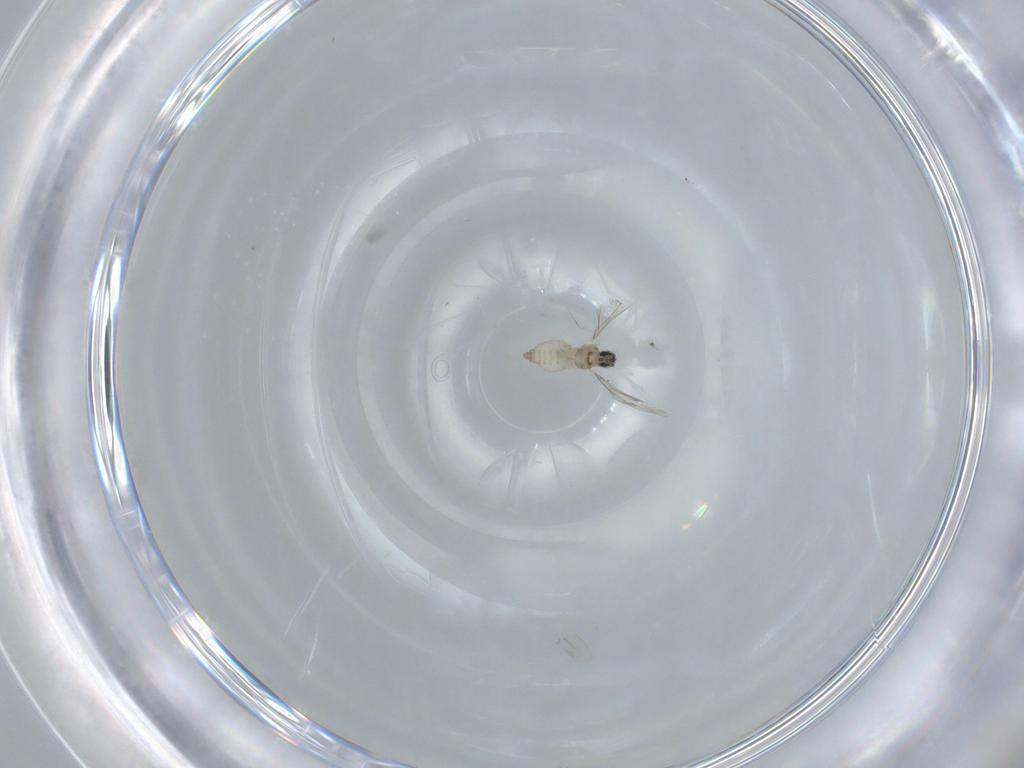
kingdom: Animalia
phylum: Arthropoda
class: Insecta
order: Diptera
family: Cecidomyiidae
